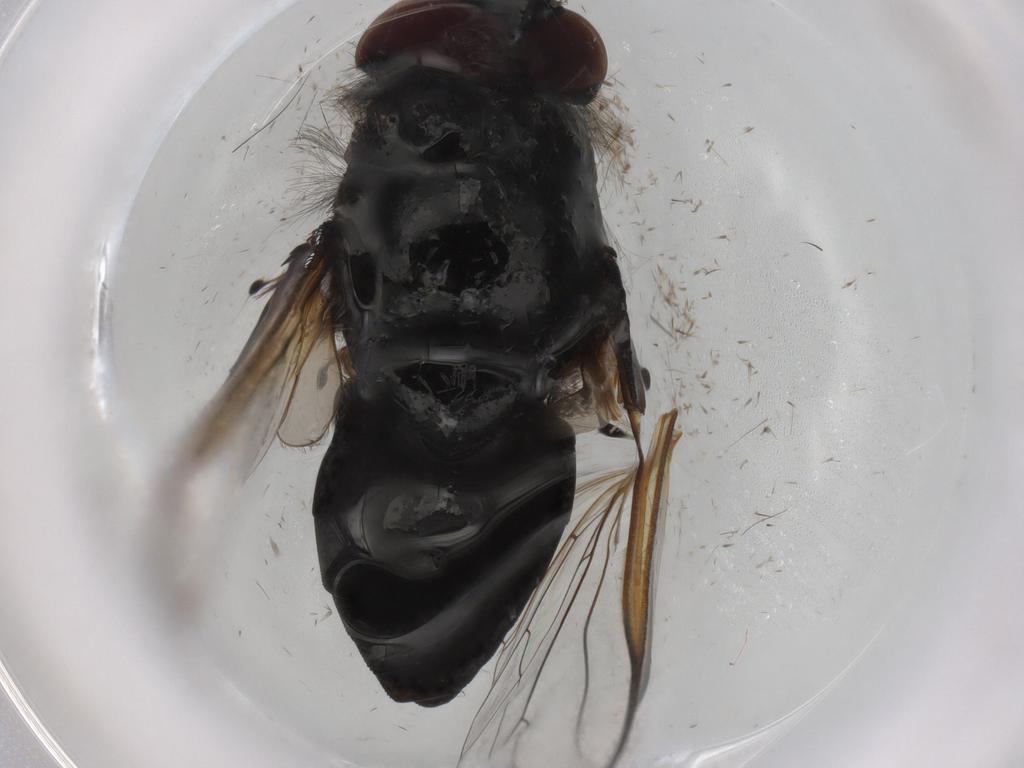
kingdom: Animalia
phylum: Arthropoda
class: Insecta
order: Diptera
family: Bombyliidae
